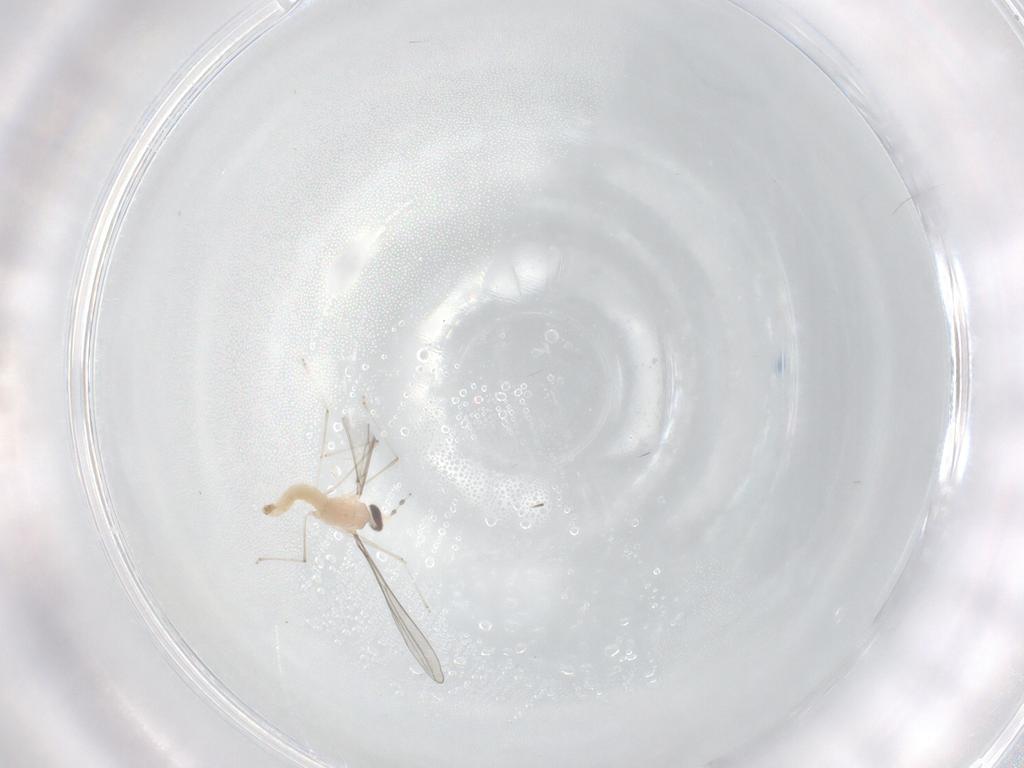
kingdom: Animalia
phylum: Arthropoda
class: Insecta
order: Diptera
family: Cecidomyiidae
